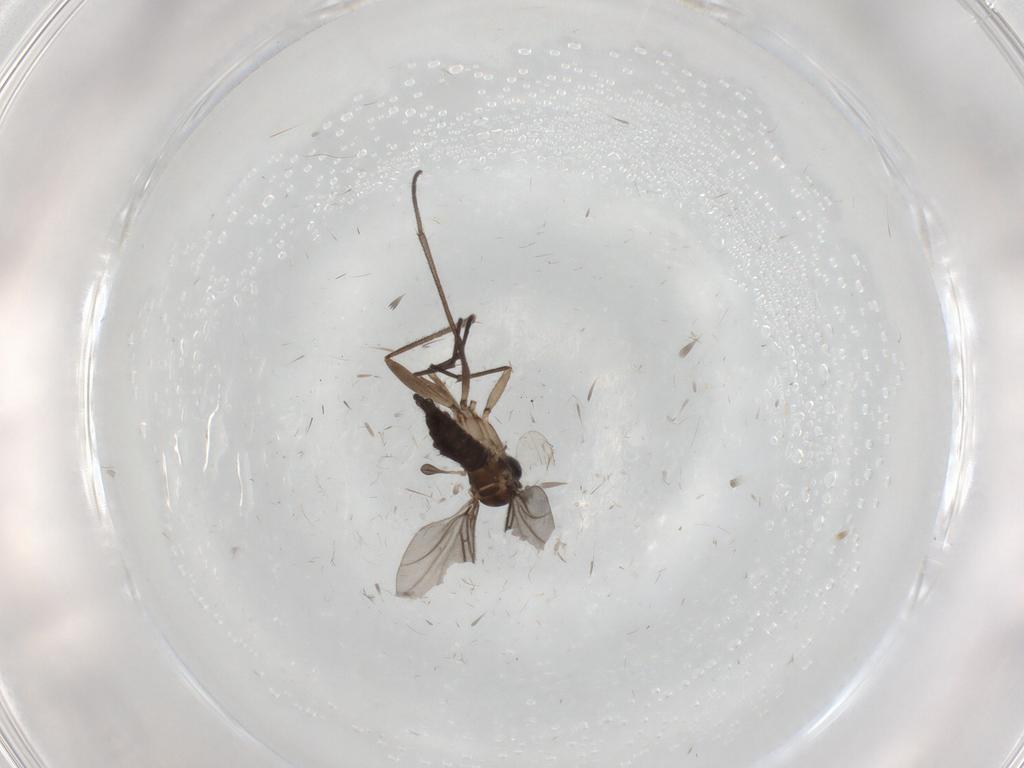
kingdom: Animalia
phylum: Arthropoda
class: Insecta
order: Diptera
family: Sciaridae
